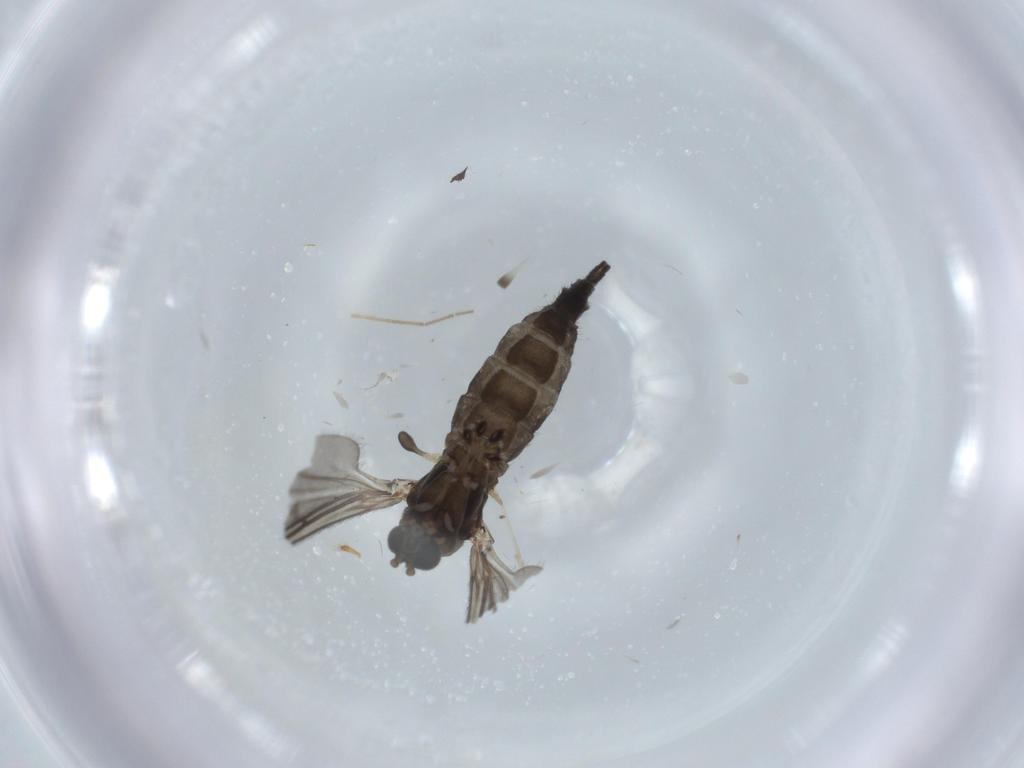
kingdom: Animalia
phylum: Arthropoda
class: Insecta
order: Diptera
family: Sciaridae
